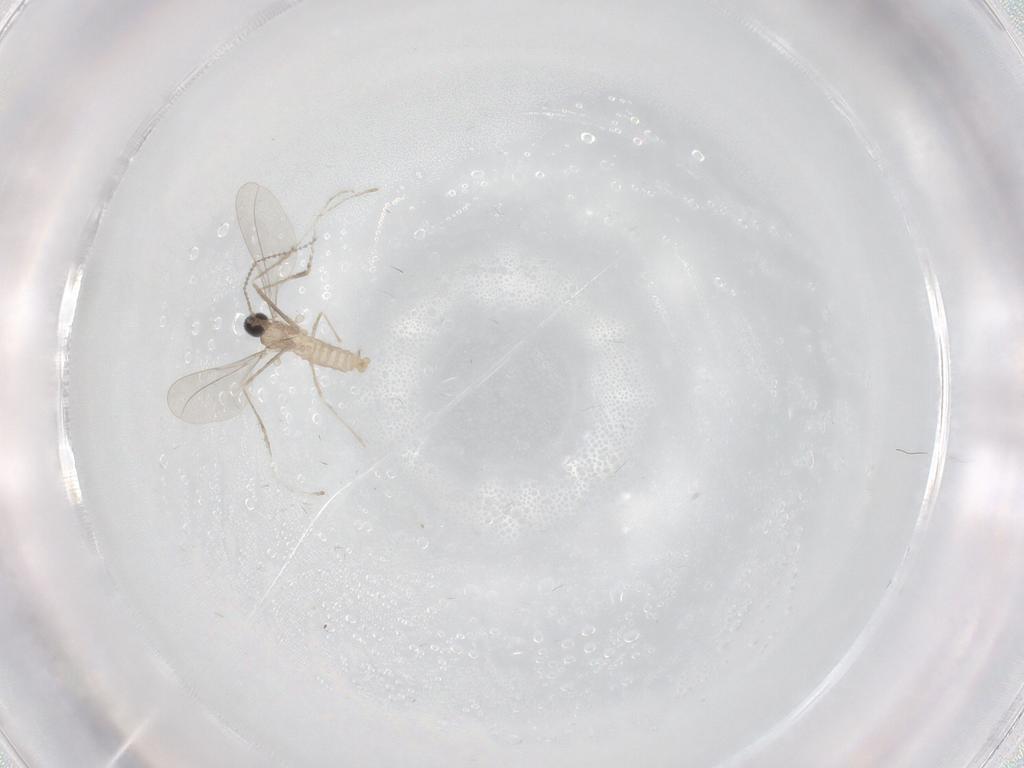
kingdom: Animalia
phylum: Arthropoda
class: Insecta
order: Diptera
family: Cecidomyiidae
